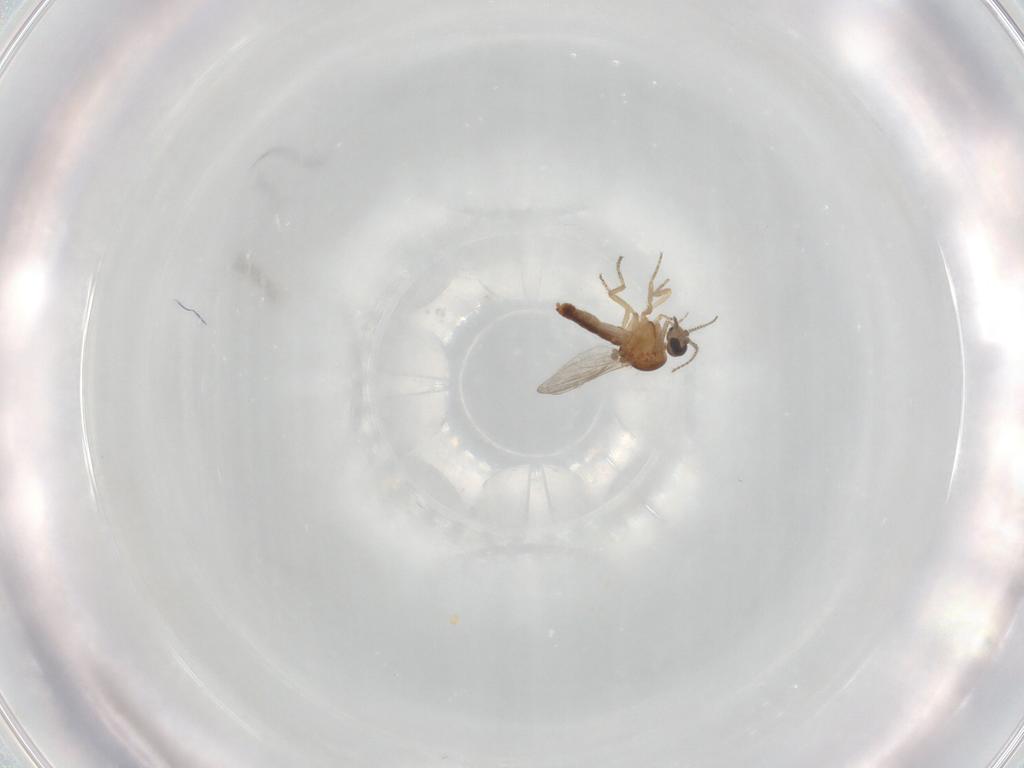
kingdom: Animalia
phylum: Arthropoda
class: Insecta
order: Diptera
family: Ceratopogonidae
